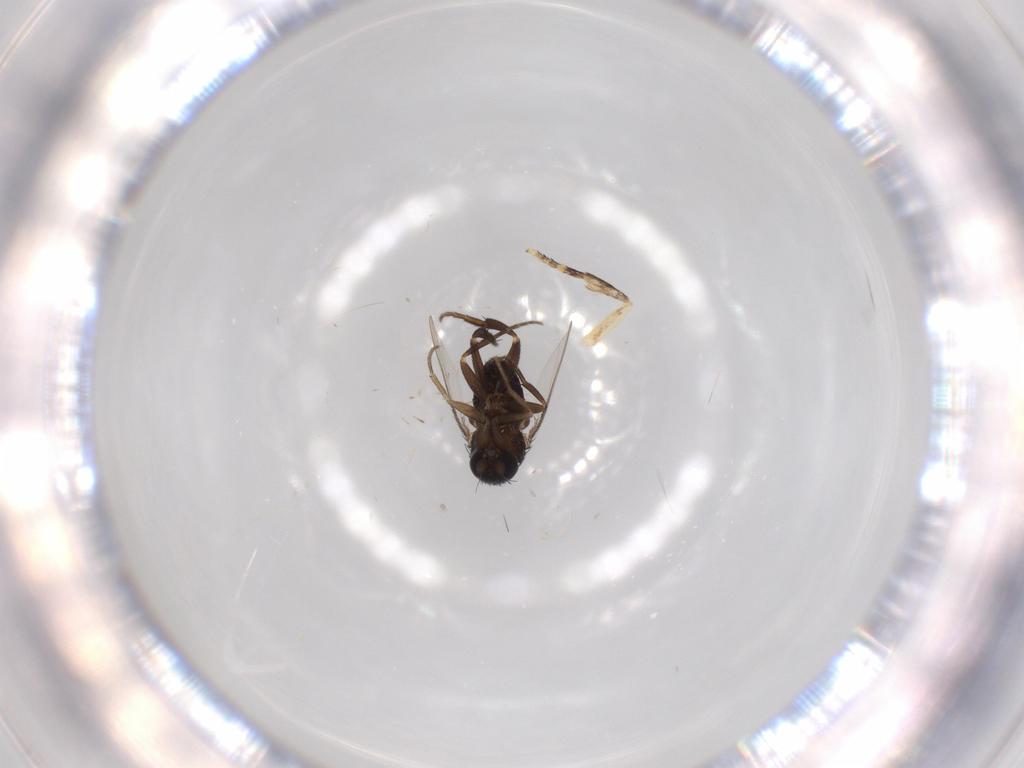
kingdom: Animalia
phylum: Arthropoda
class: Insecta
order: Diptera
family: Phoridae
